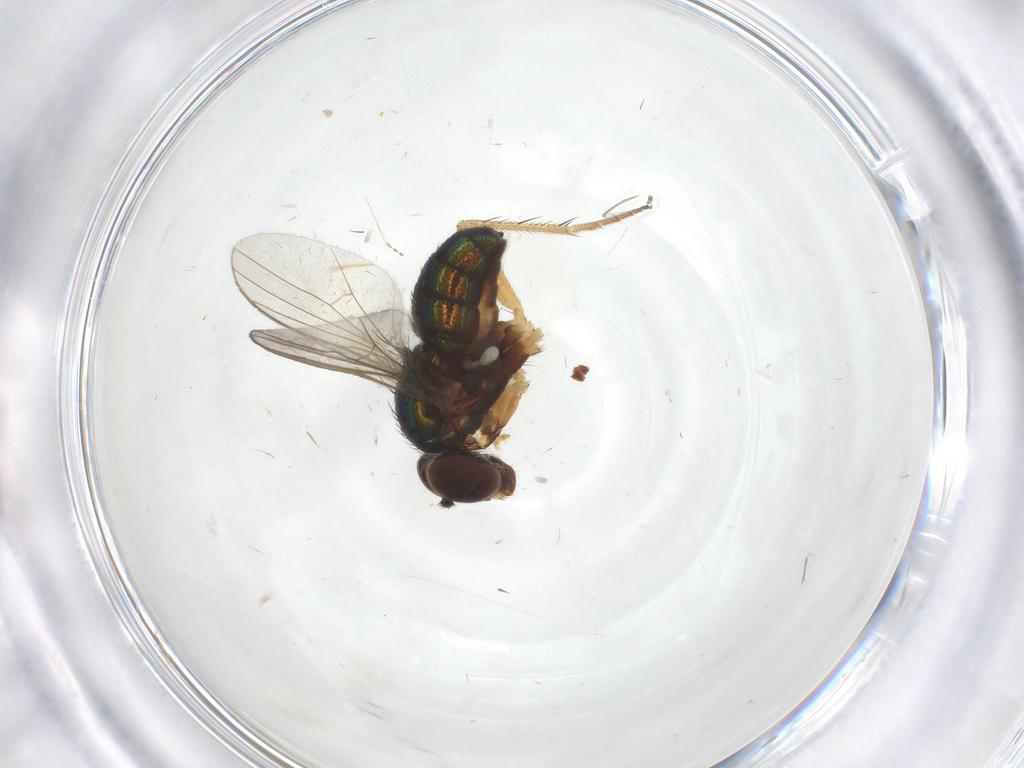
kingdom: Animalia
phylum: Arthropoda
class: Insecta
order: Diptera
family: Cecidomyiidae
